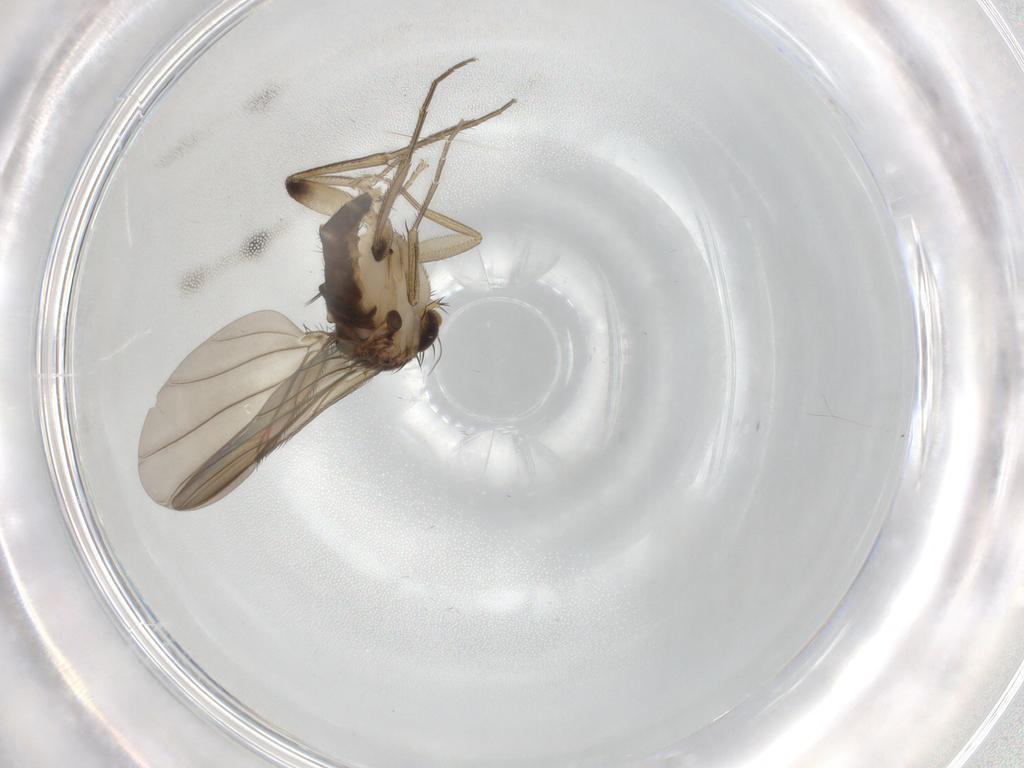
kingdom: Animalia
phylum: Arthropoda
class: Insecta
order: Diptera
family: Phoridae
